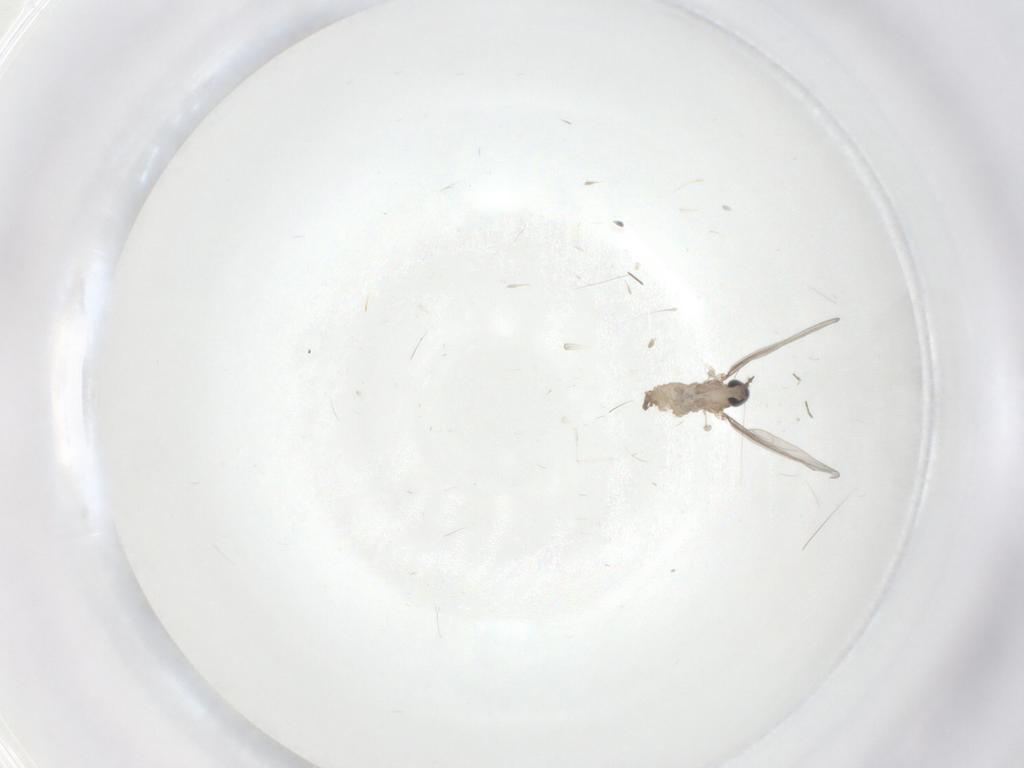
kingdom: Animalia
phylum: Arthropoda
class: Insecta
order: Diptera
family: Cecidomyiidae
